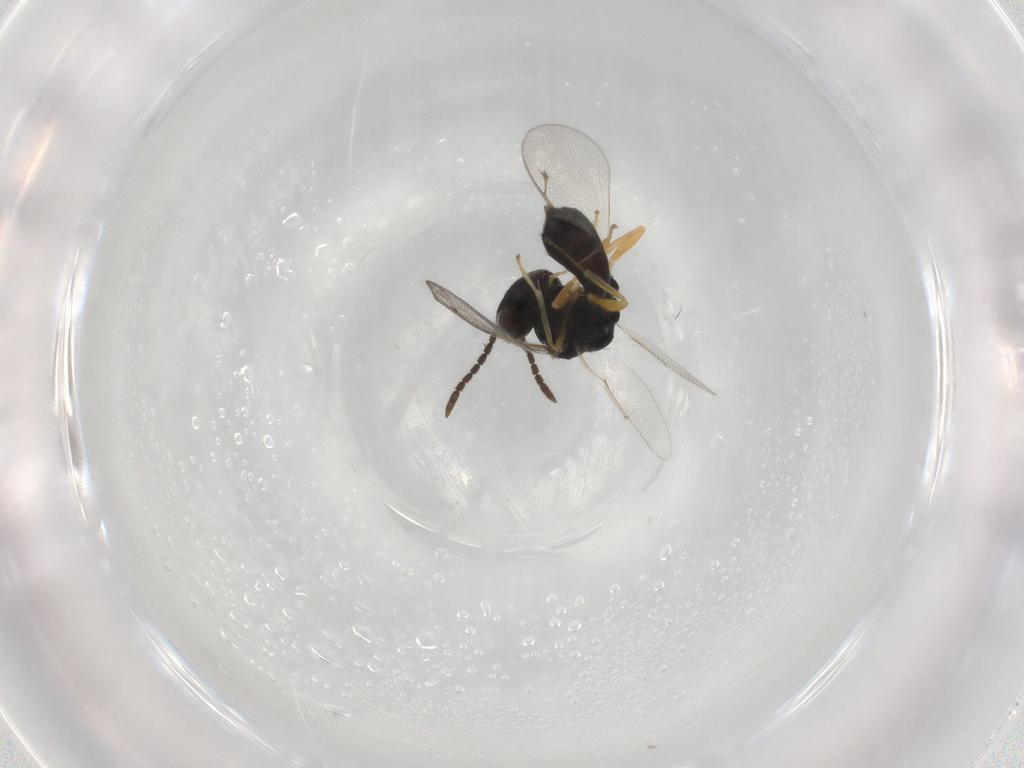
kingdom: Animalia
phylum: Arthropoda
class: Insecta
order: Hymenoptera
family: Pteromalidae
